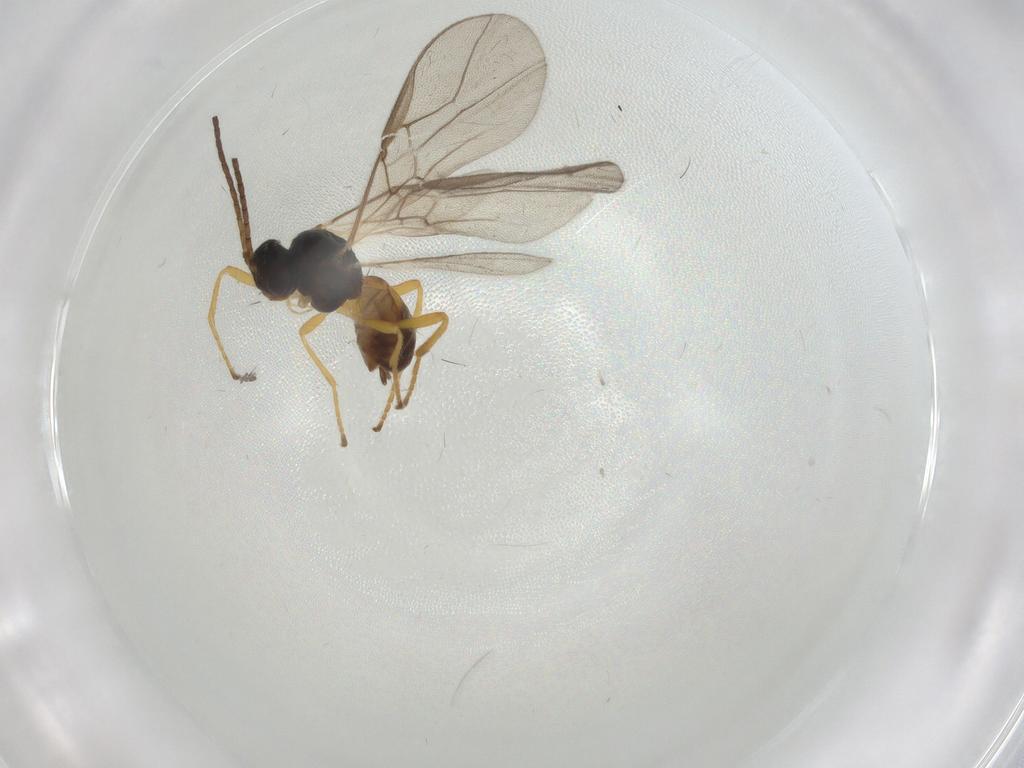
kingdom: Animalia
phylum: Arthropoda
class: Insecta
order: Hymenoptera
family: Braconidae
